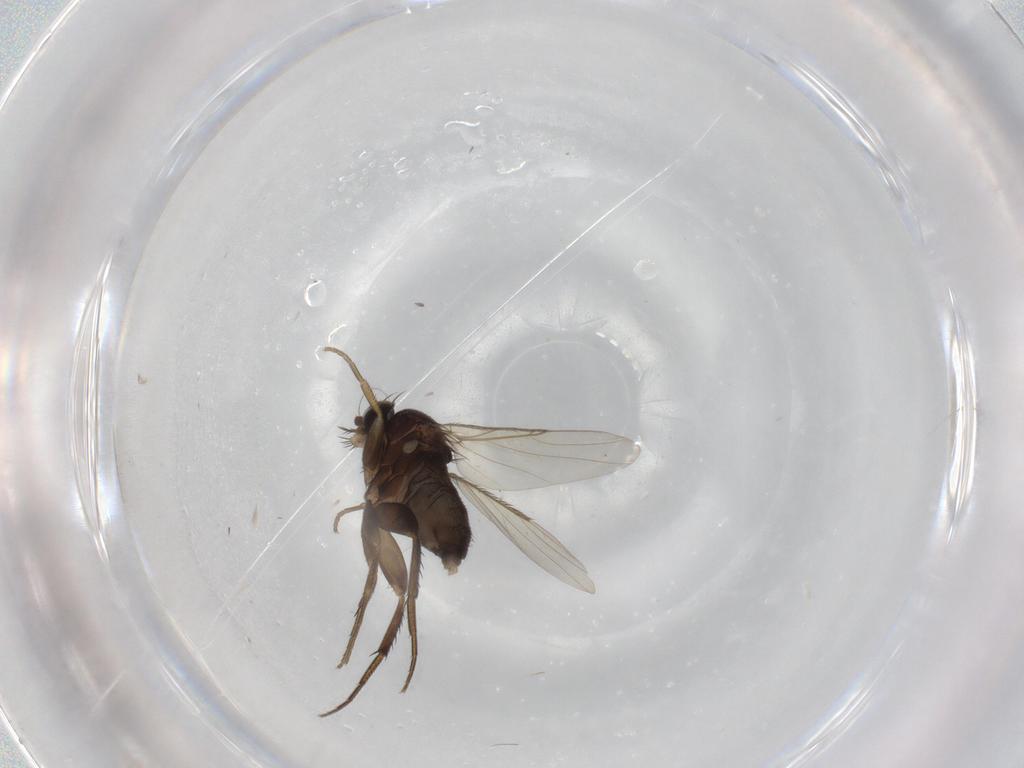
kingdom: Animalia
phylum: Arthropoda
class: Insecta
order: Diptera
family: Phoridae
